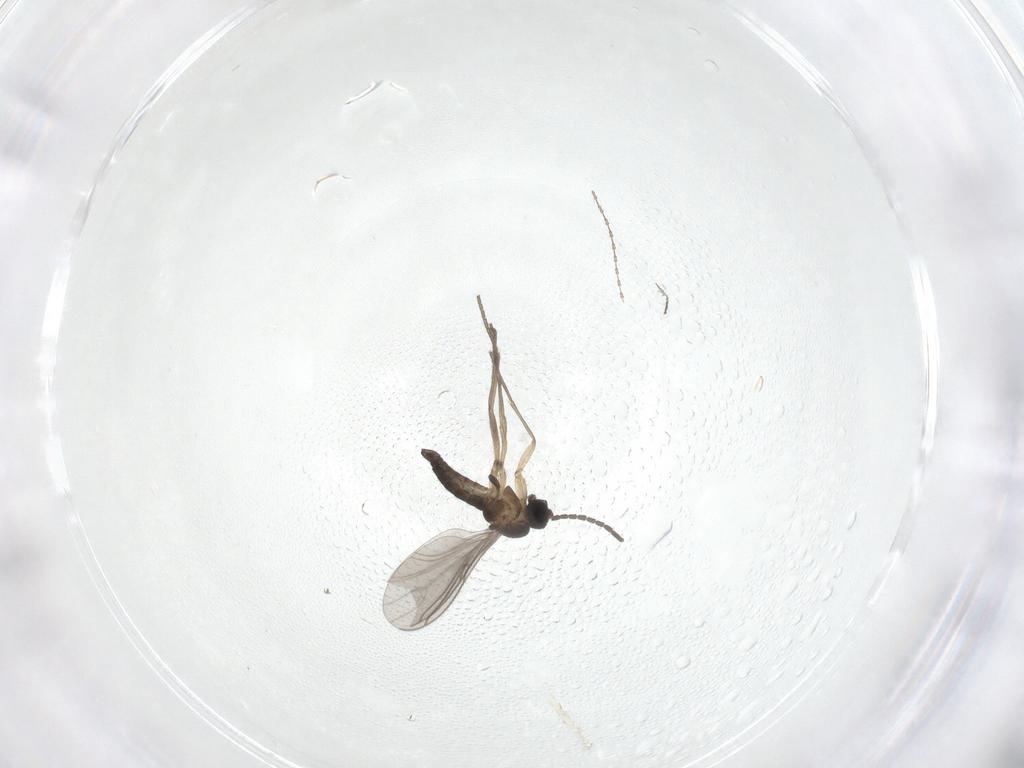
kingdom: Animalia
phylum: Arthropoda
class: Insecta
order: Diptera
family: Sciaridae
